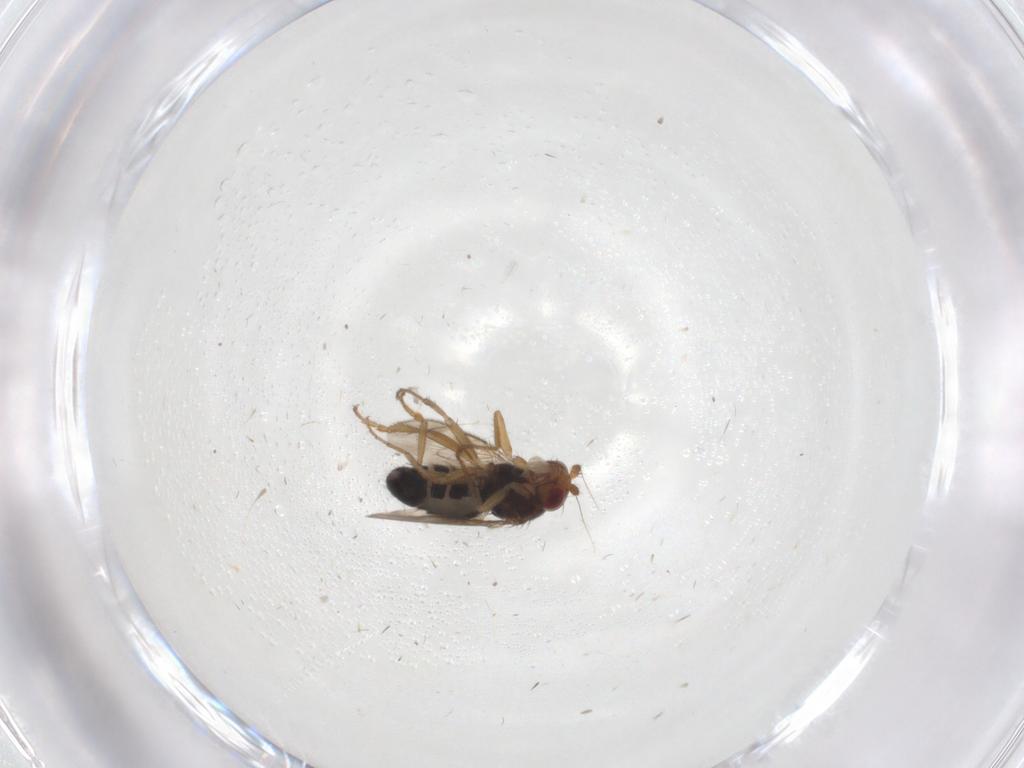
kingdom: Animalia
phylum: Arthropoda
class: Insecta
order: Diptera
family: Sphaeroceridae
